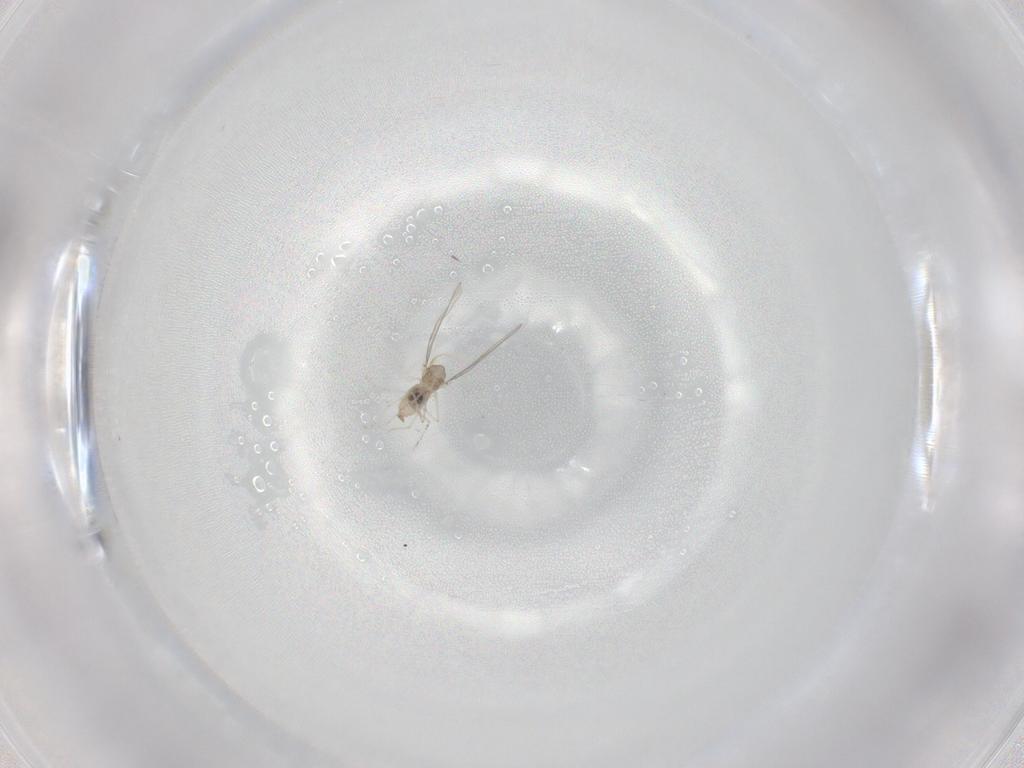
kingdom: Animalia
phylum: Arthropoda
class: Insecta
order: Diptera
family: Cecidomyiidae
